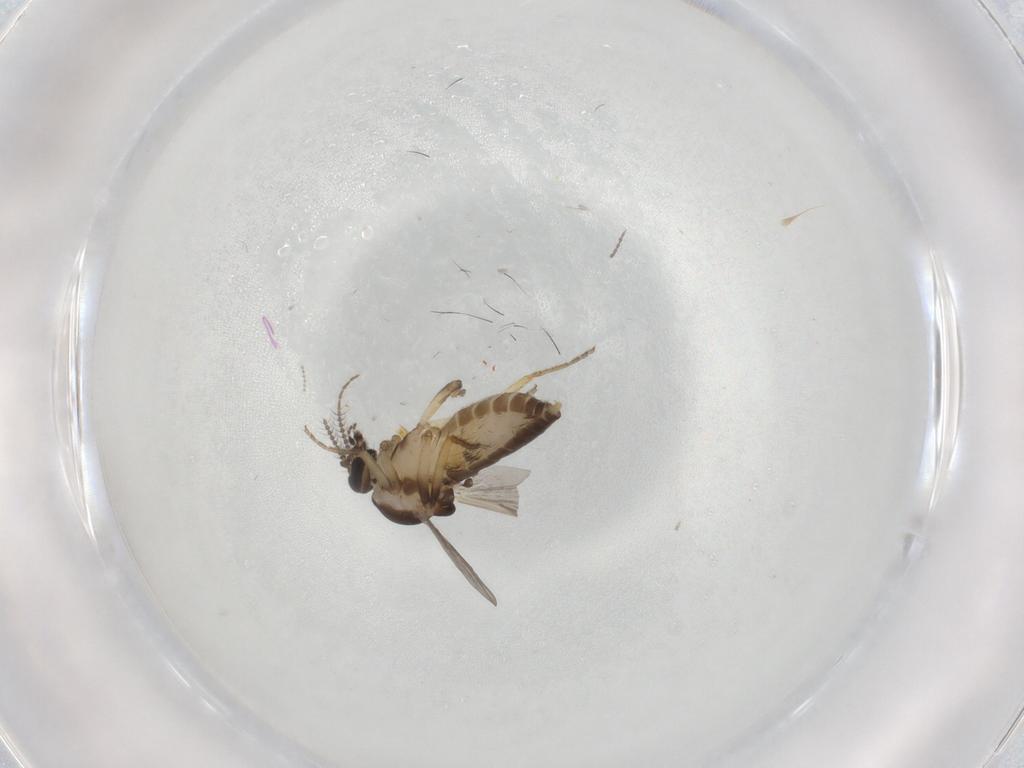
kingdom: Animalia
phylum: Arthropoda
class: Insecta
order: Diptera
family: Ceratopogonidae
